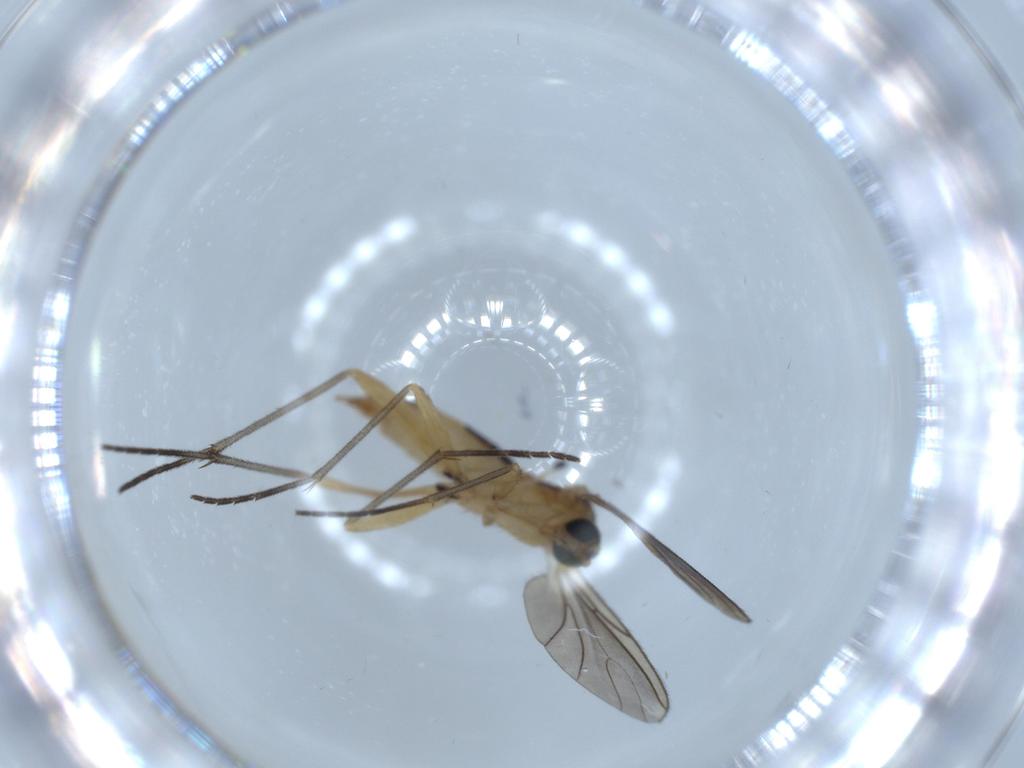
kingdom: Animalia
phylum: Arthropoda
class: Insecta
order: Diptera
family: Sciaridae
